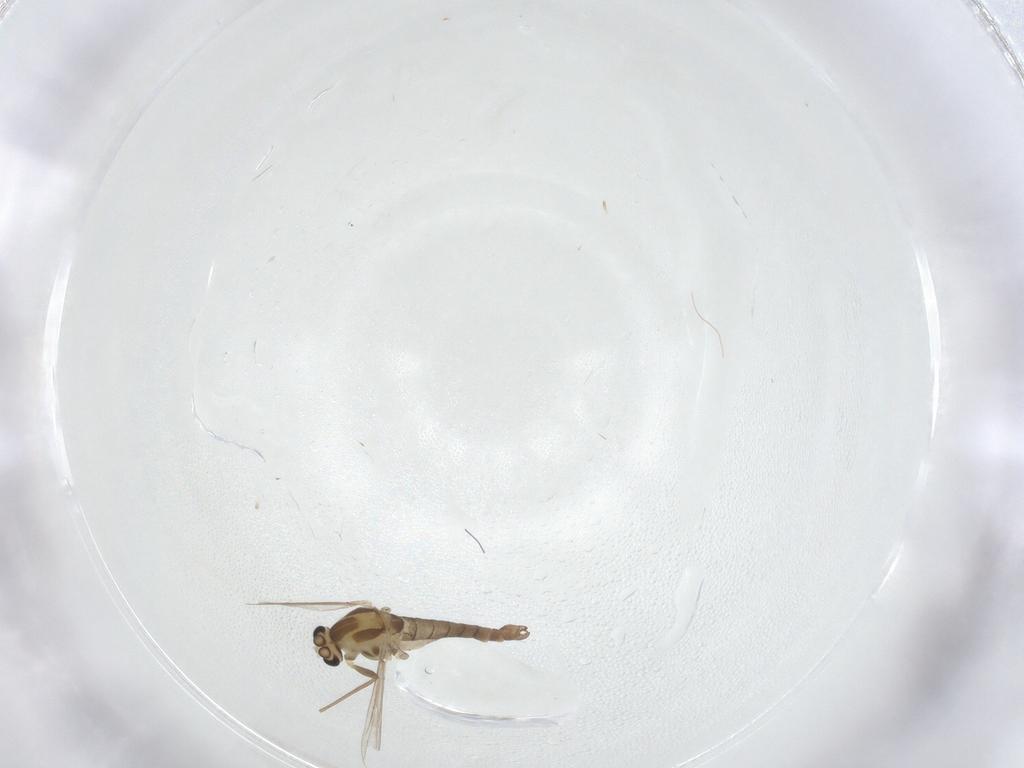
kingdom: Animalia
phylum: Arthropoda
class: Insecta
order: Diptera
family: Chironomidae
